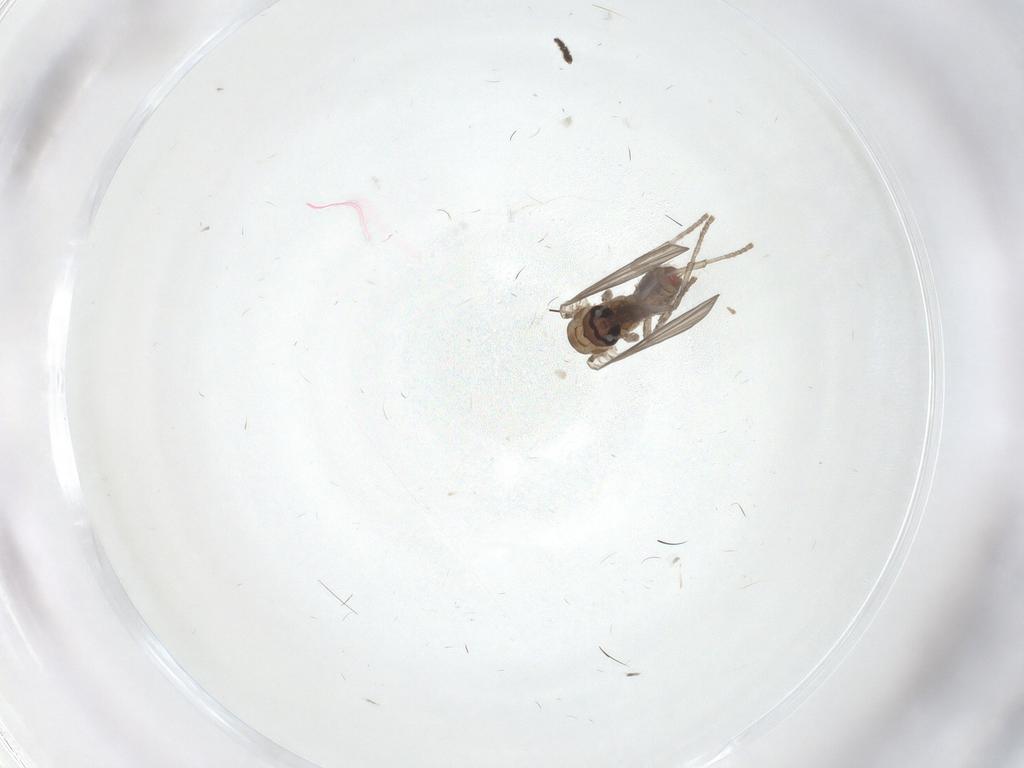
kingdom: Animalia
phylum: Arthropoda
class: Insecta
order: Diptera
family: Psychodidae
